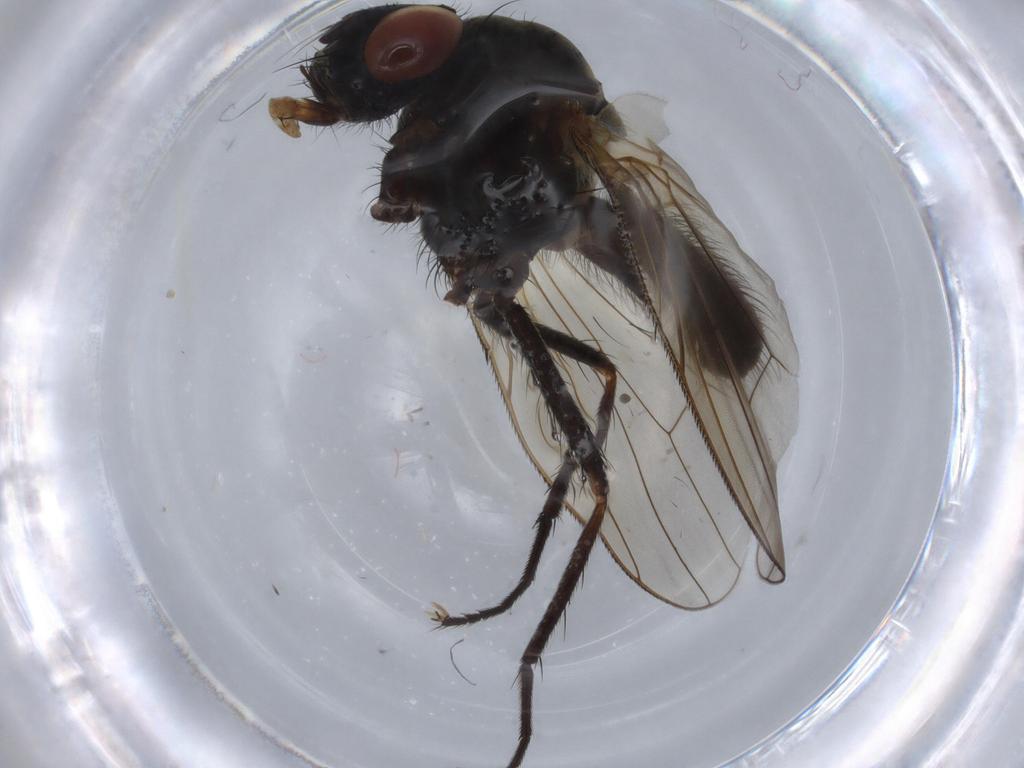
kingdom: Animalia
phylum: Arthropoda
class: Insecta
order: Diptera
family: Anthomyiidae
